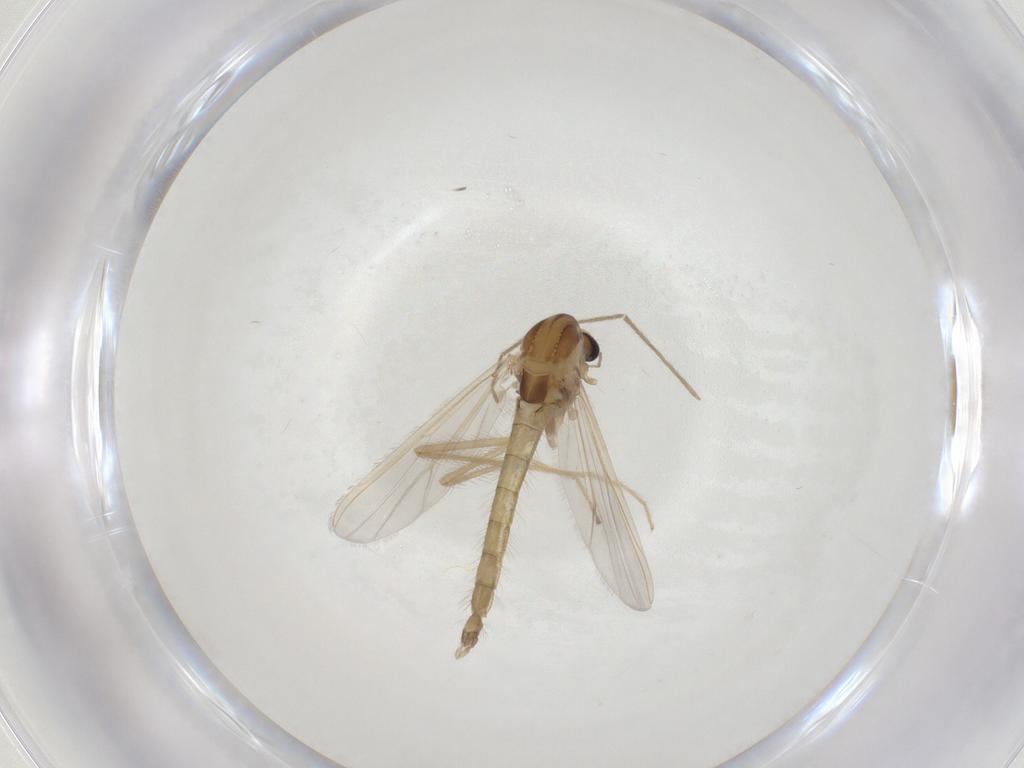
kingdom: Animalia
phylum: Arthropoda
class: Insecta
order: Diptera
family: Chironomidae
